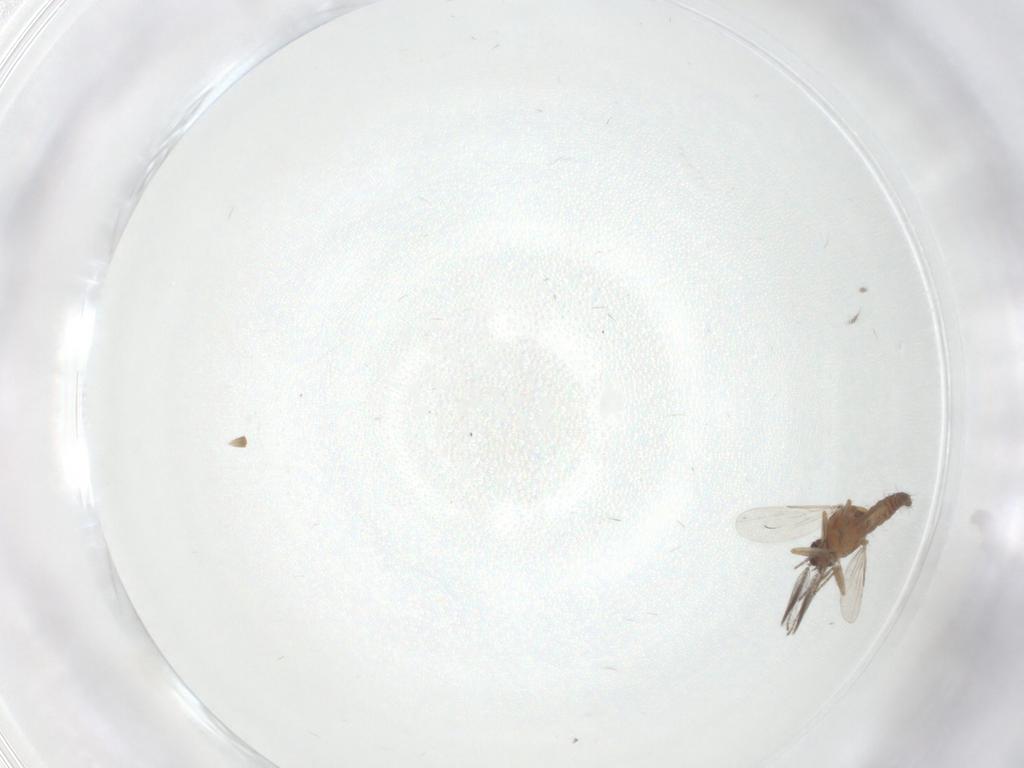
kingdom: Animalia
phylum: Arthropoda
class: Insecta
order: Diptera
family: Ceratopogonidae
